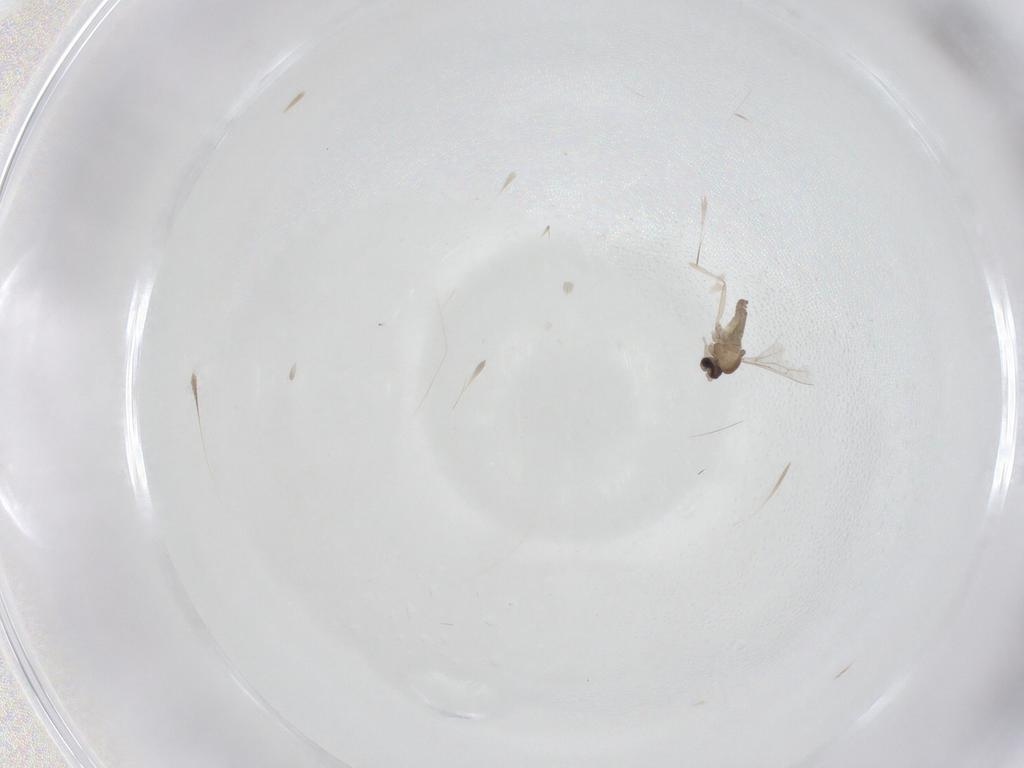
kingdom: Animalia
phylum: Arthropoda
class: Insecta
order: Diptera
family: Cecidomyiidae
